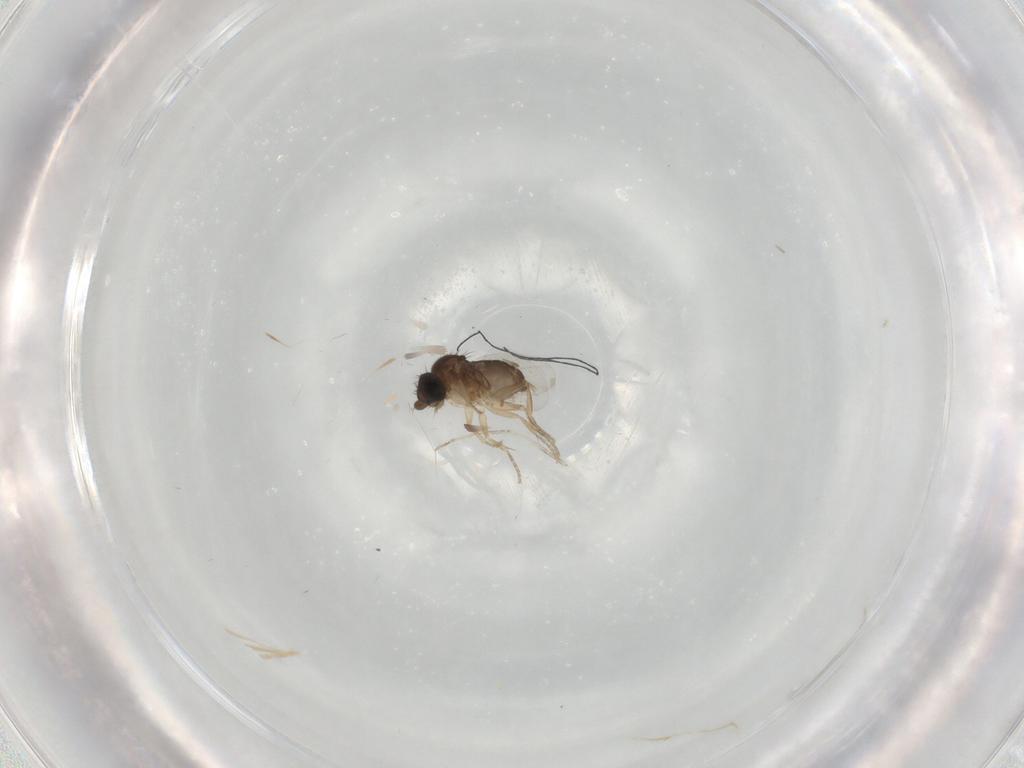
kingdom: Animalia
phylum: Arthropoda
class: Insecta
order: Diptera
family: Phoridae
